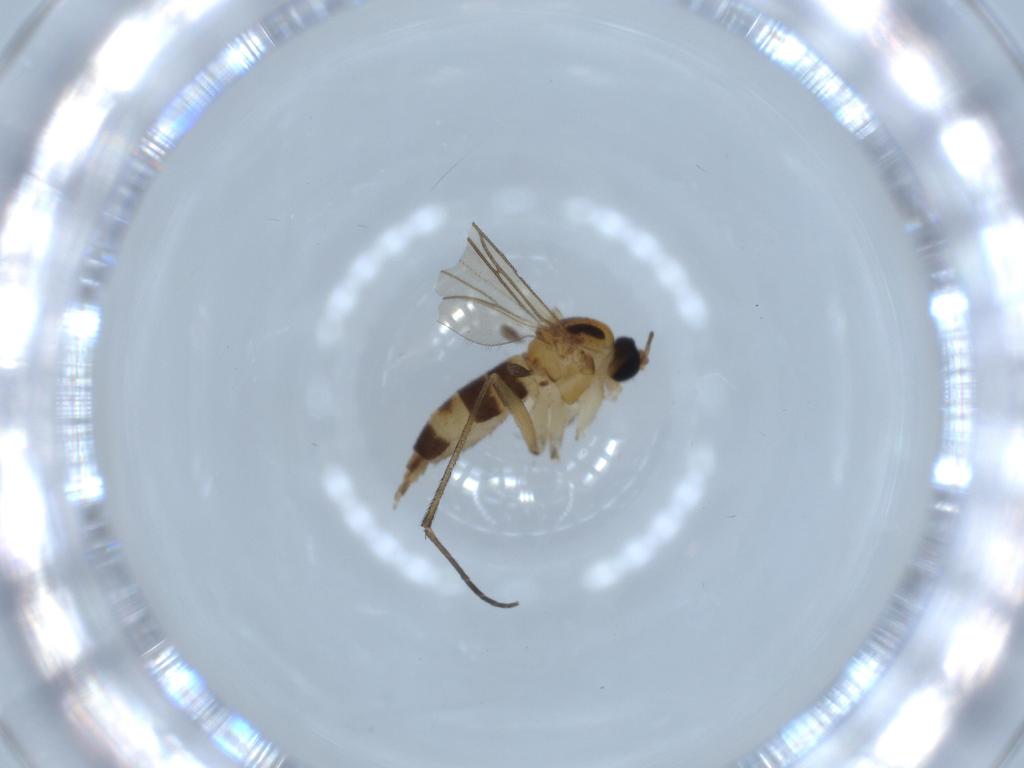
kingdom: Animalia
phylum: Arthropoda
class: Insecta
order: Diptera
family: Sciaridae
